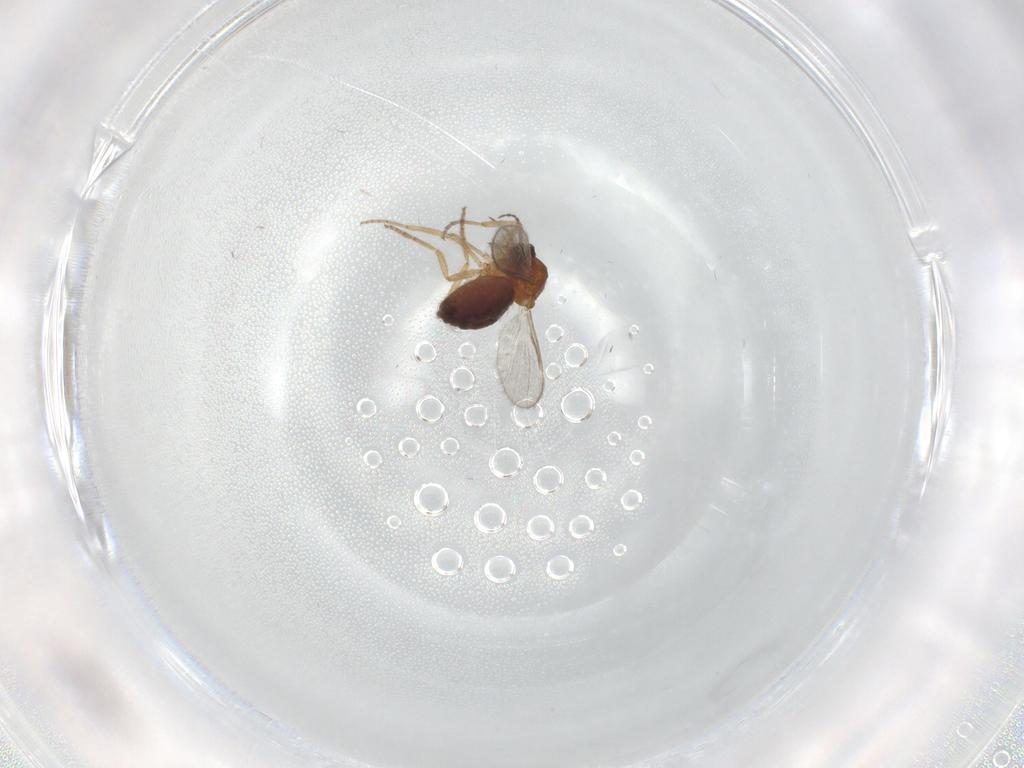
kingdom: Animalia
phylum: Arthropoda
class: Insecta
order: Diptera
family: Ceratopogonidae
